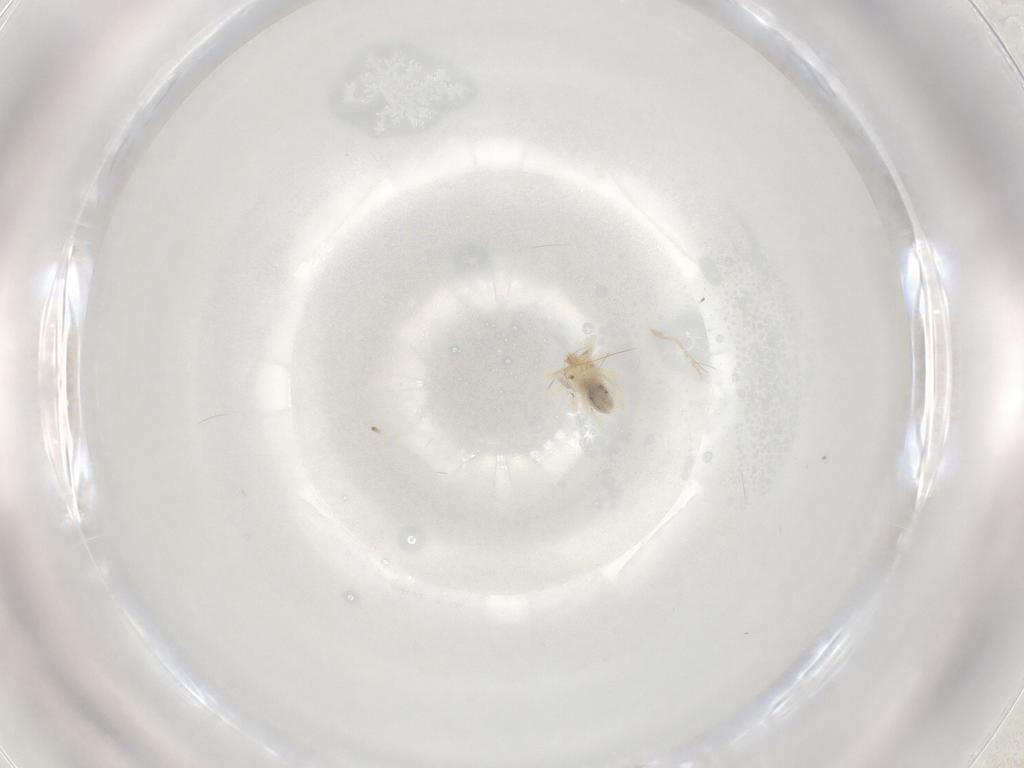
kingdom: Animalia
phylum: Arthropoda
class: Arachnida
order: Trombidiformes
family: Anystidae
